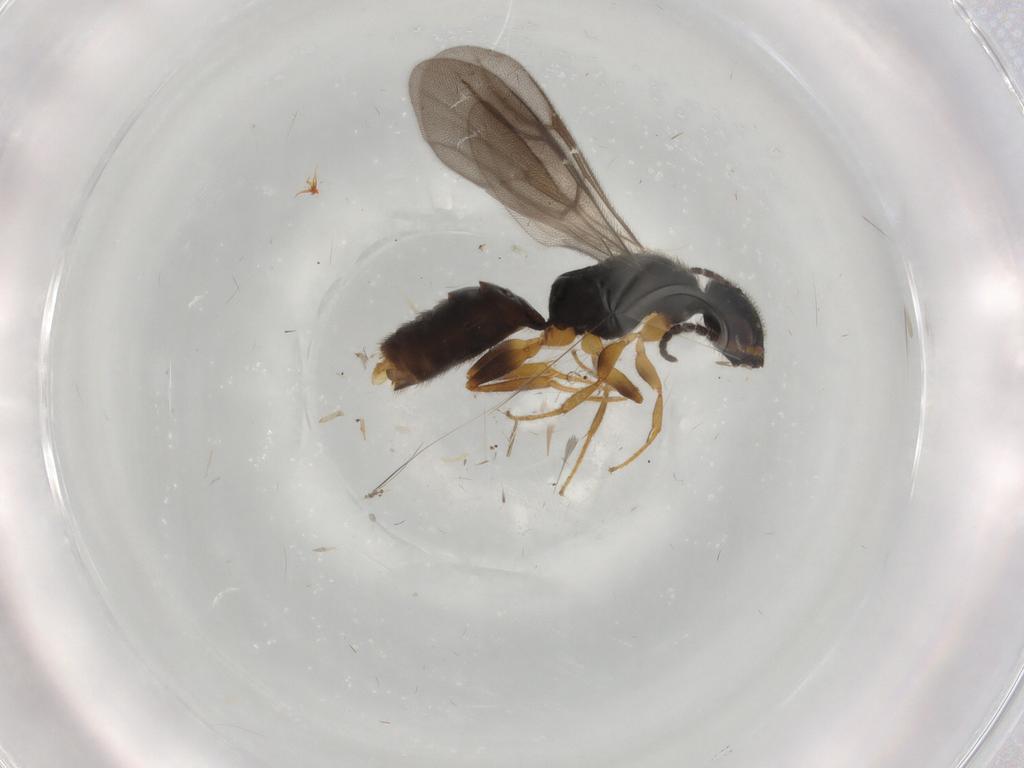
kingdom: Animalia
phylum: Arthropoda
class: Insecta
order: Hymenoptera
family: Bethylidae
